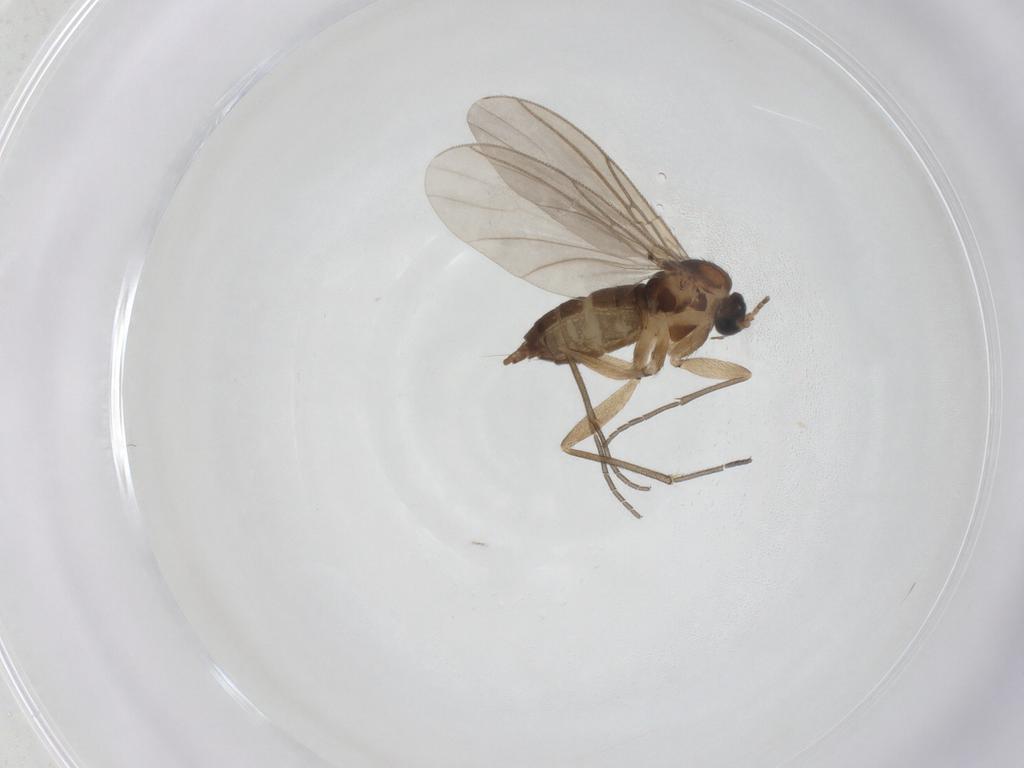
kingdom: Animalia
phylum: Arthropoda
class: Insecta
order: Diptera
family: Sciaridae
